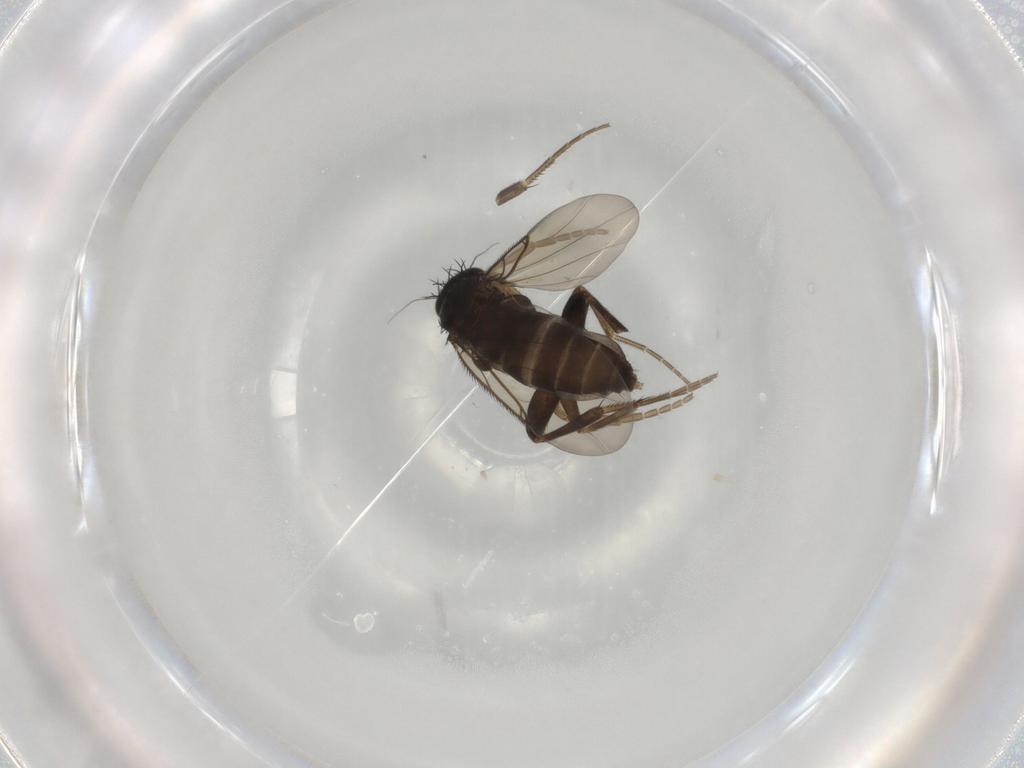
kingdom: Animalia
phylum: Arthropoda
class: Insecta
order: Diptera
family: Phoridae
